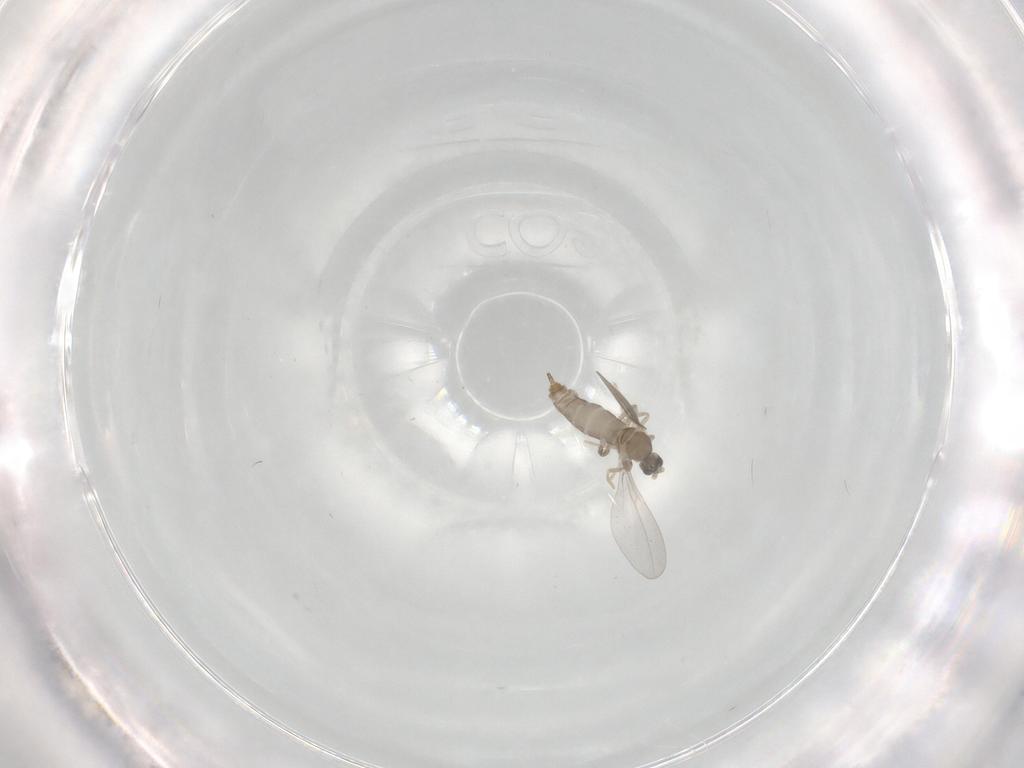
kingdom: Animalia
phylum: Arthropoda
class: Insecta
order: Diptera
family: Cecidomyiidae
